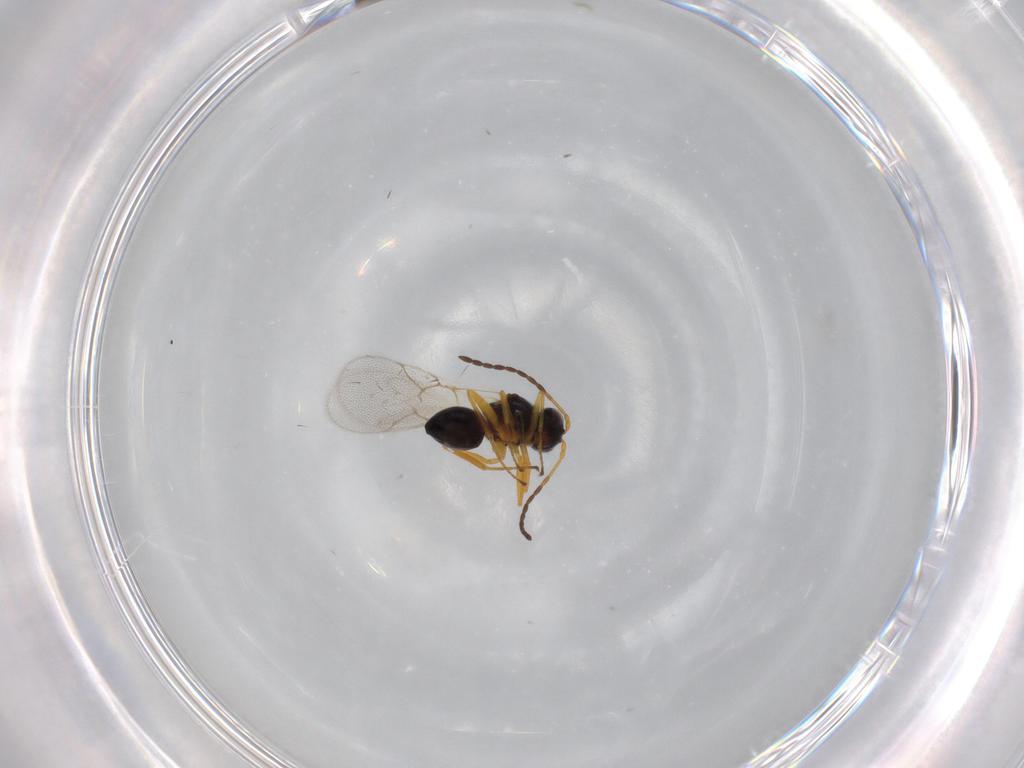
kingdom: Animalia
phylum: Arthropoda
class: Insecta
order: Hymenoptera
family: Figitidae
